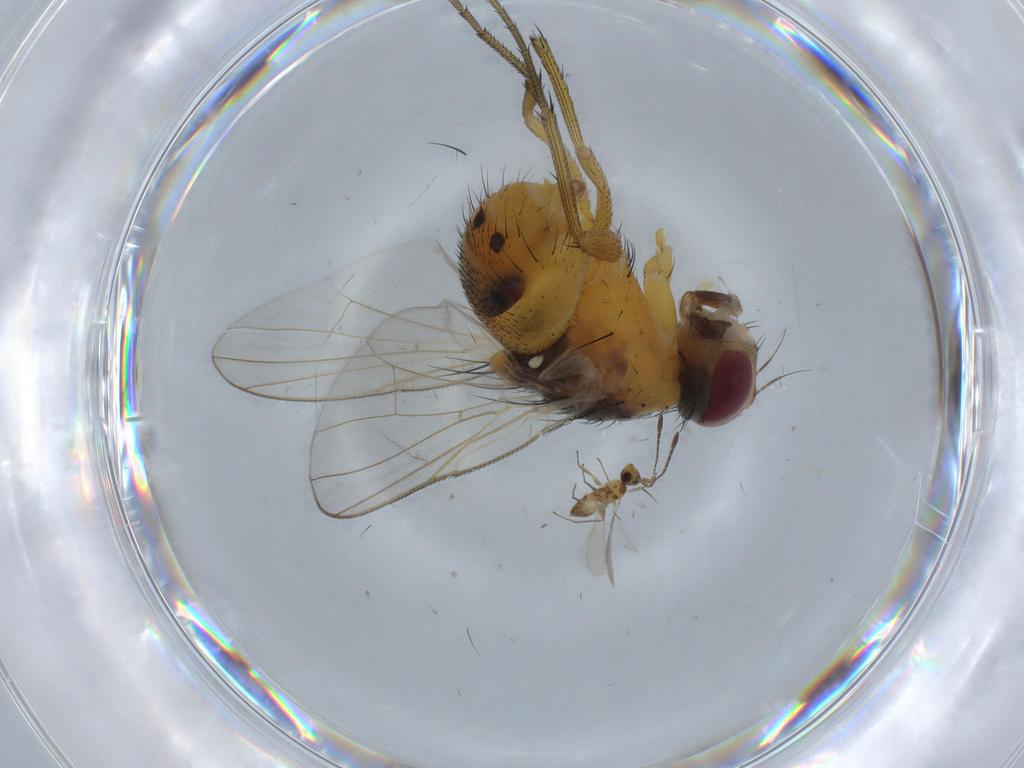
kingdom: Animalia
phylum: Arthropoda
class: Insecta
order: Diptera
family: Muscidae
